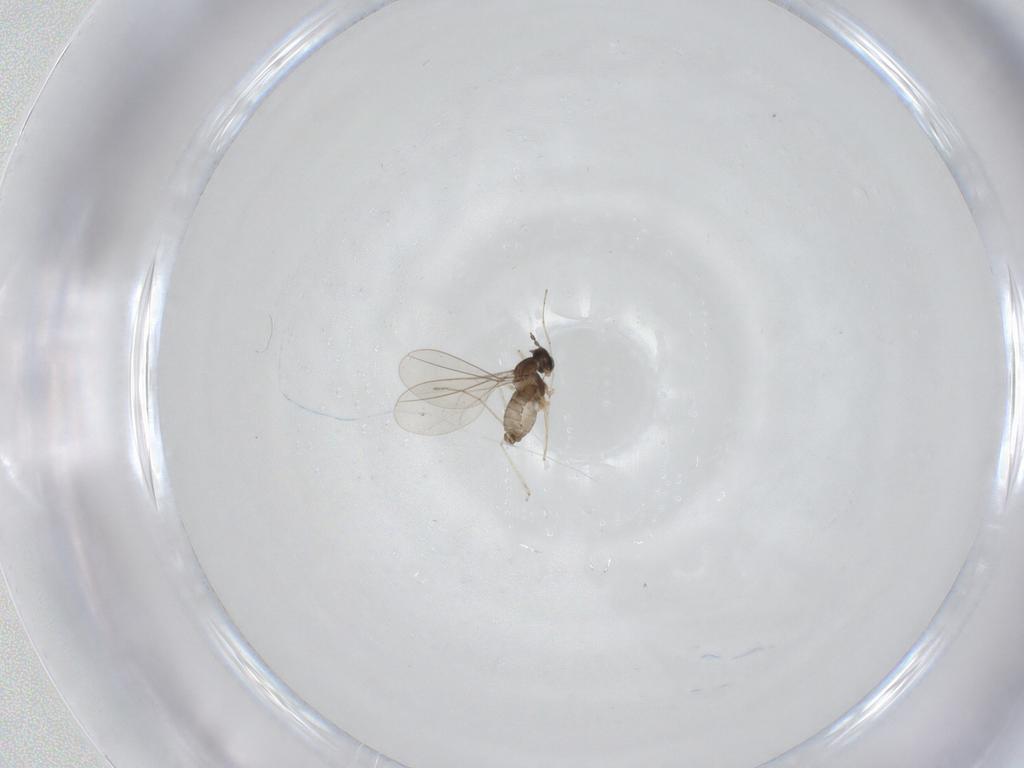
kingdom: Animalia
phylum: Arthropoda
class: Insecta
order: Diptera
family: Cecidomyiidae
